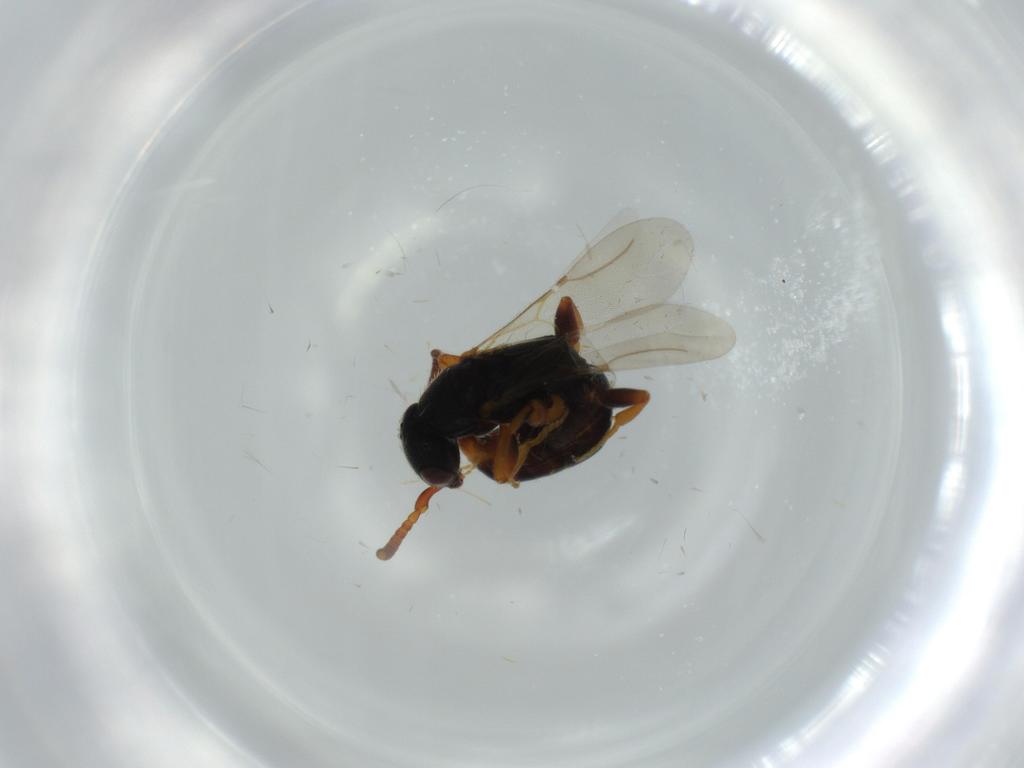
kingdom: Animalia
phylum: Arthropoda
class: Insecta
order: Hymenoptera
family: Bethylidae
